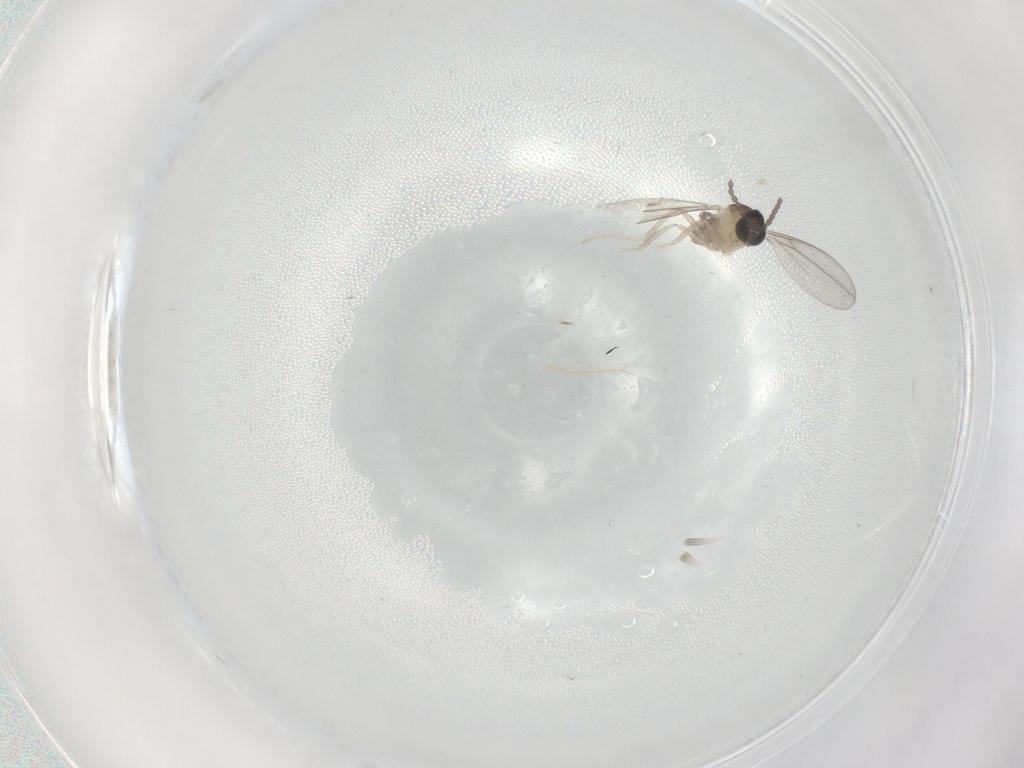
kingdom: Animalia
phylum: Arthropoda
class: Insecta
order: Diptera
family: Cecidomyiidae
